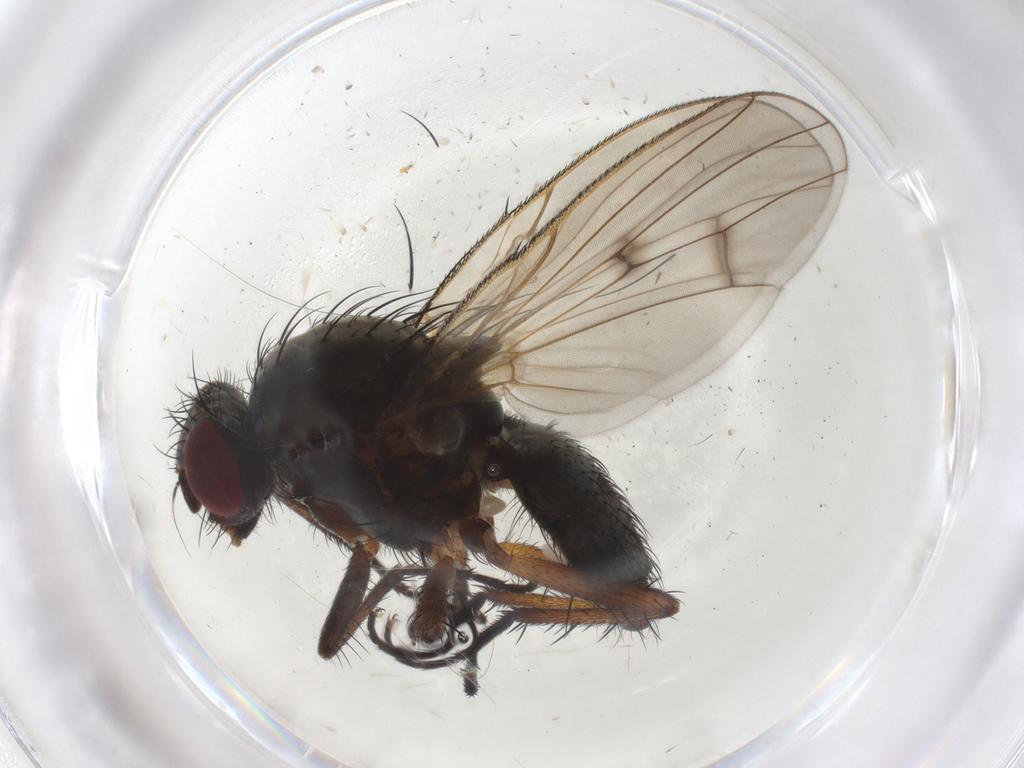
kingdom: Animalia
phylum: Arthropoda
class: Insecta
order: Diptera
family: Anthomyiidae
